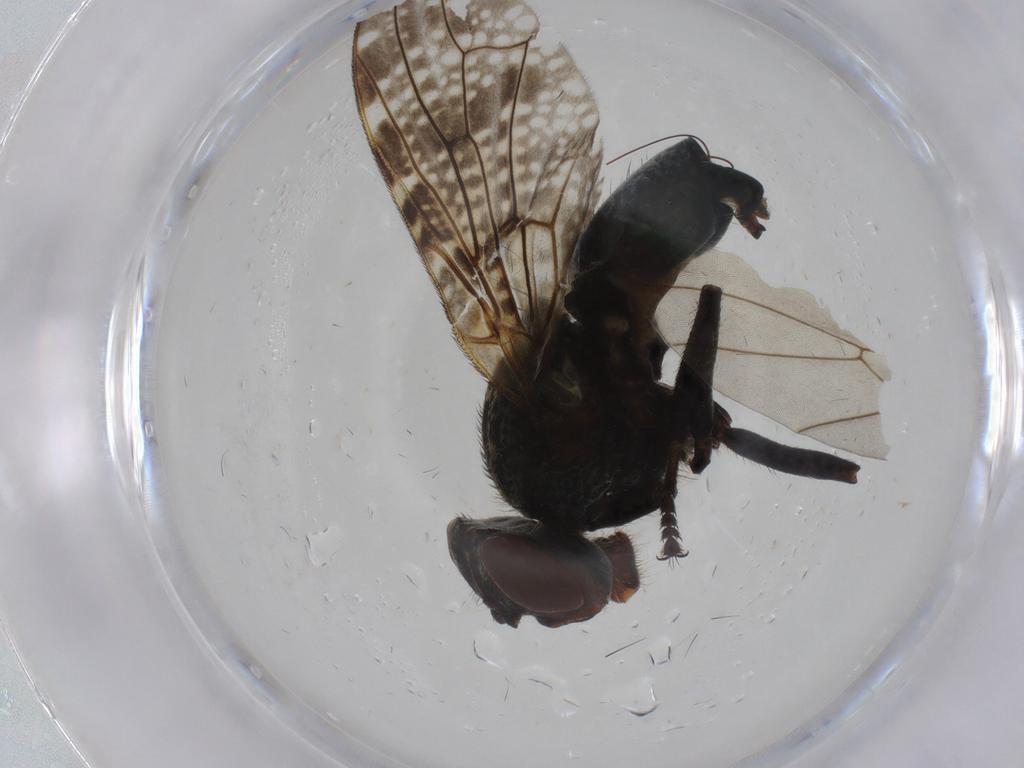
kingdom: Animalia
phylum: Arthropoda
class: Insecta
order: Diptera
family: Platystomatidae
